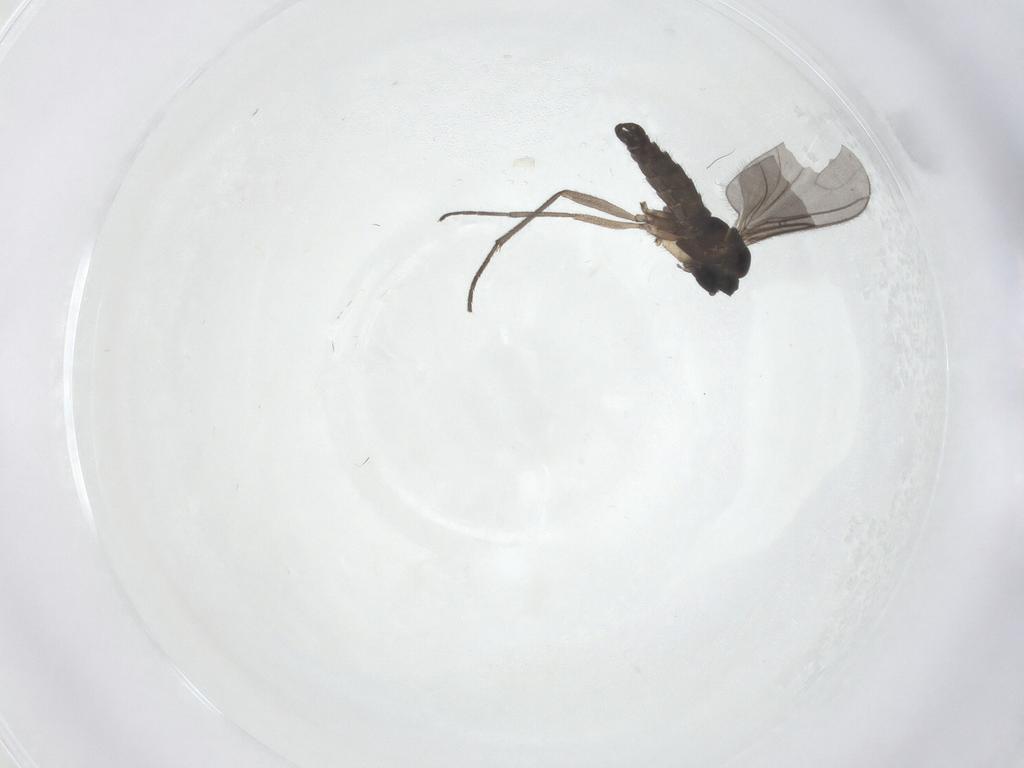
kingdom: Animalia
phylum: Arthropoda
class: Insecta
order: Diptera
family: Sciaridae
